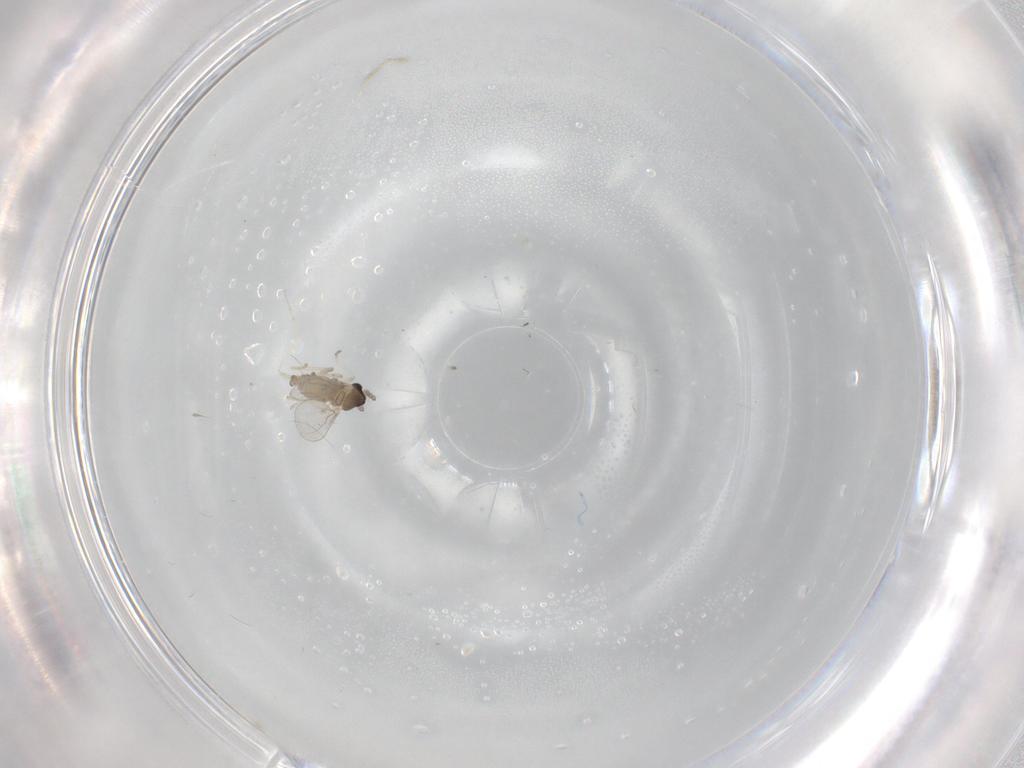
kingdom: Animalia
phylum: Arthropoda
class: Insecta
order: Diptera
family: Cecidomyiidae
